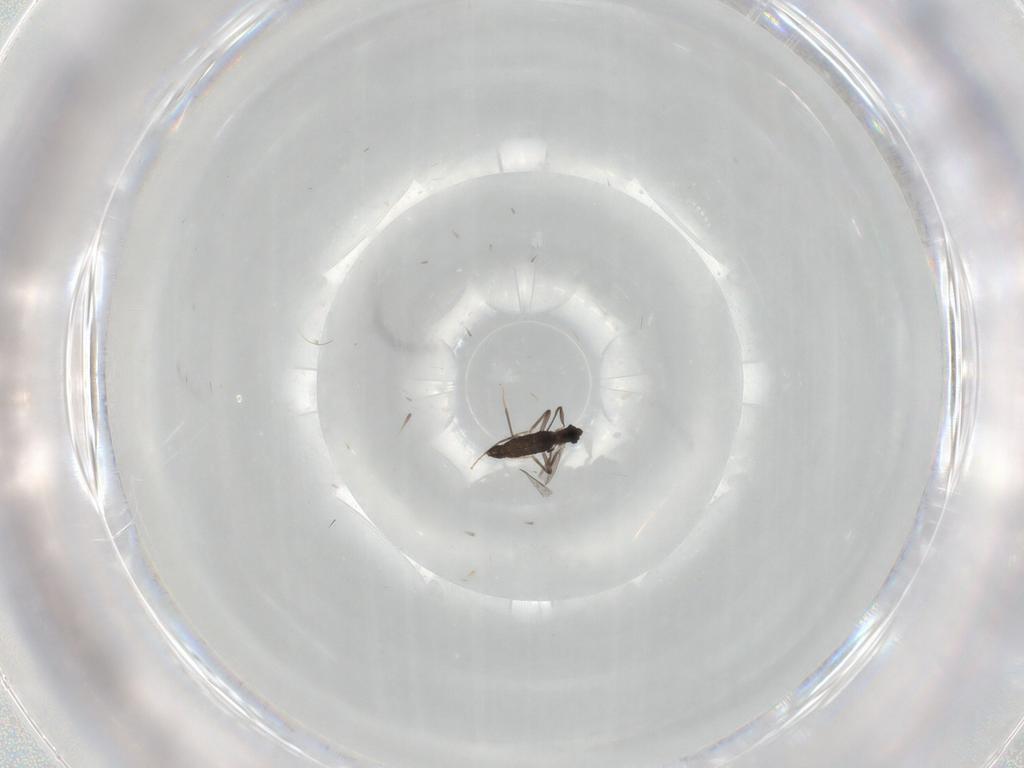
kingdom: Animalia
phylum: Arthropoda
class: Insecta
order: Diptera
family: Chironomidae
